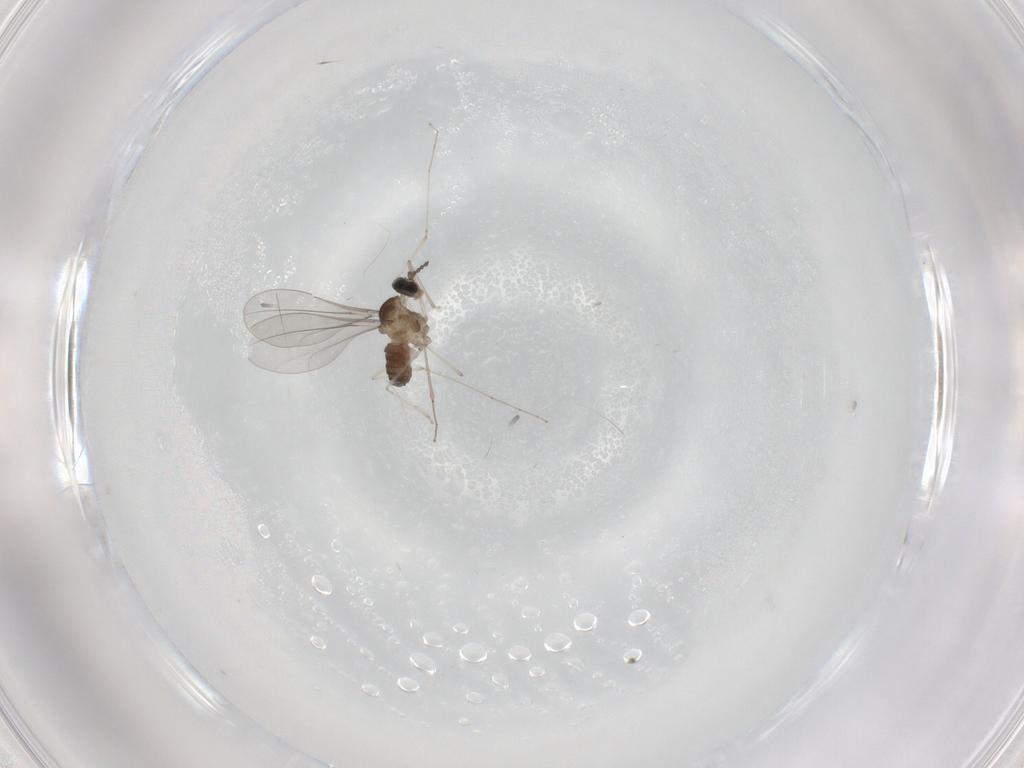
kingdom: Animalia
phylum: Arthropoda
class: Insecta
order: Diptera
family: Cecidomyiidae
